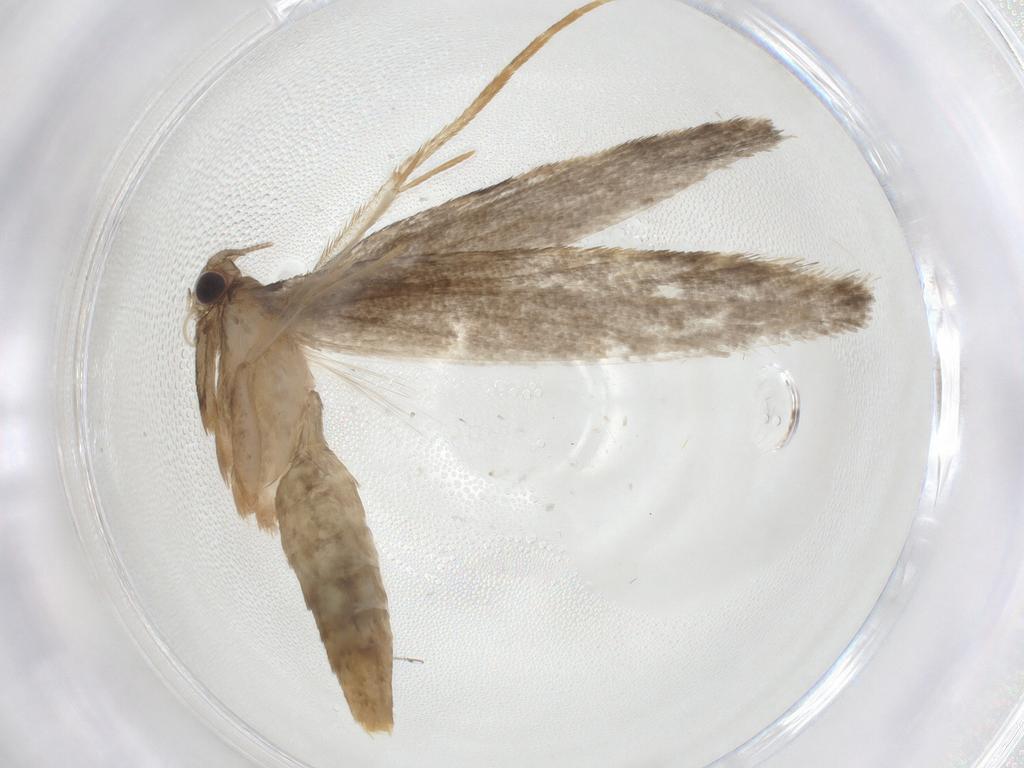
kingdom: Animalia
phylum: Arthropoda
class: Insecta
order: Lepidoptera
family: Meessiidae
